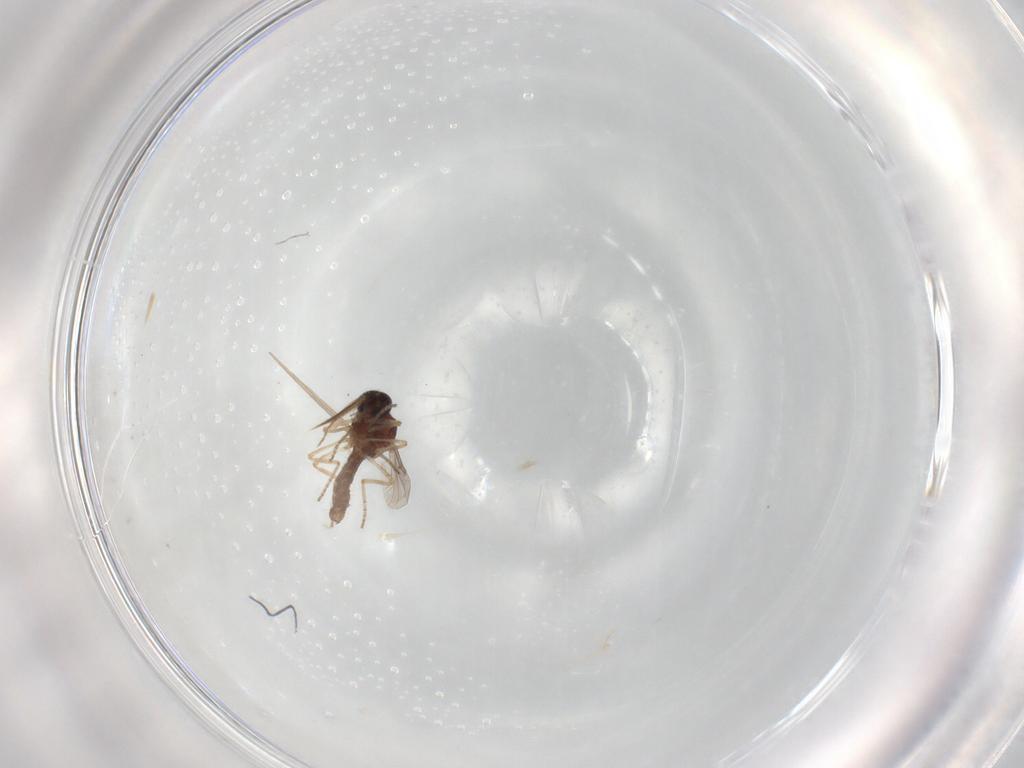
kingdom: Animalia
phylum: Arthropoda
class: Insecta
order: Diptera
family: Ceratopogonidae
